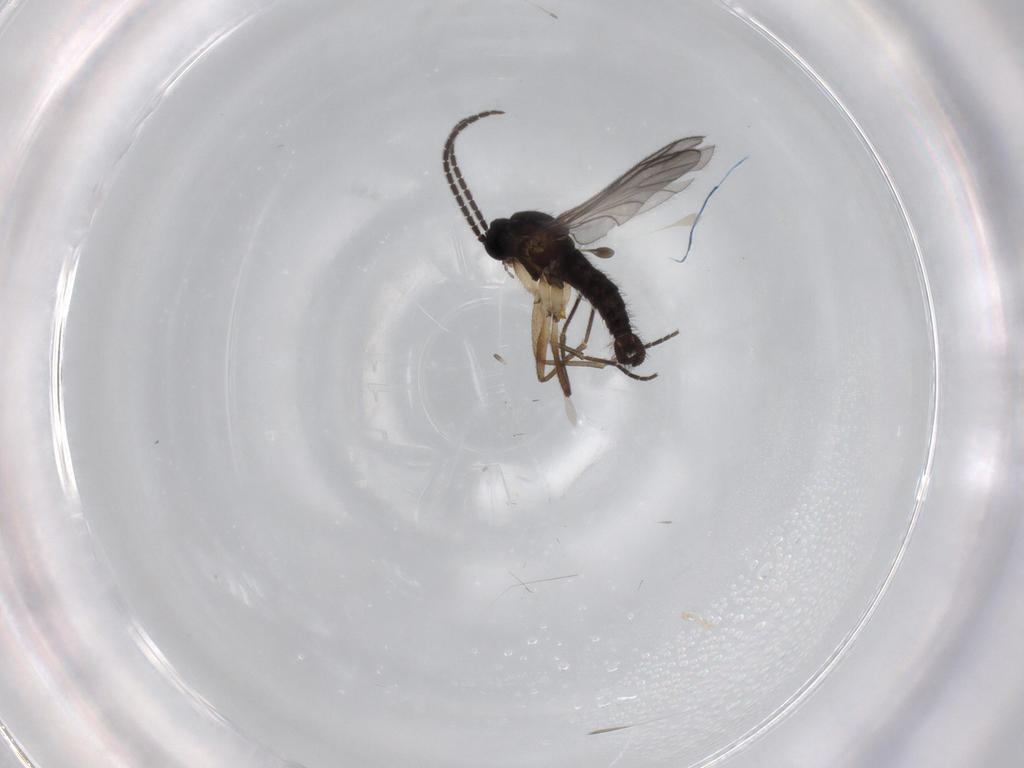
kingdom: Animalia
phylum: Arthropoda
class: Insecta
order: Diptera
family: Sciaridae
